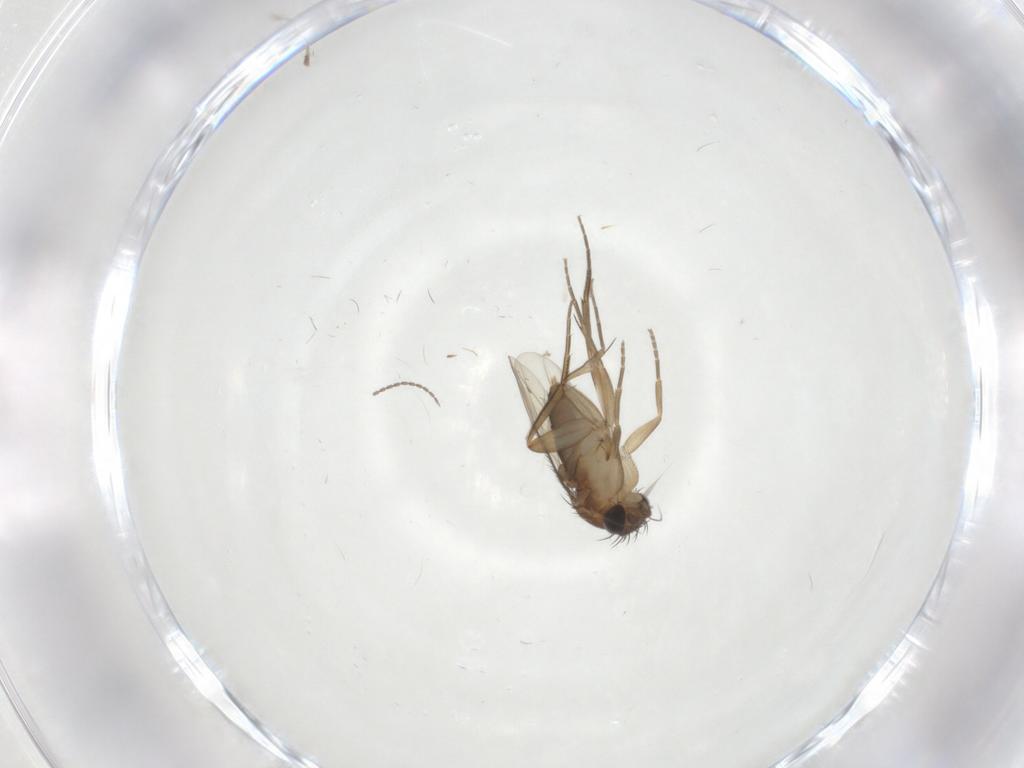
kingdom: Animalia
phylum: Arthropoda
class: Insecta
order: Diptera
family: Phoridae
